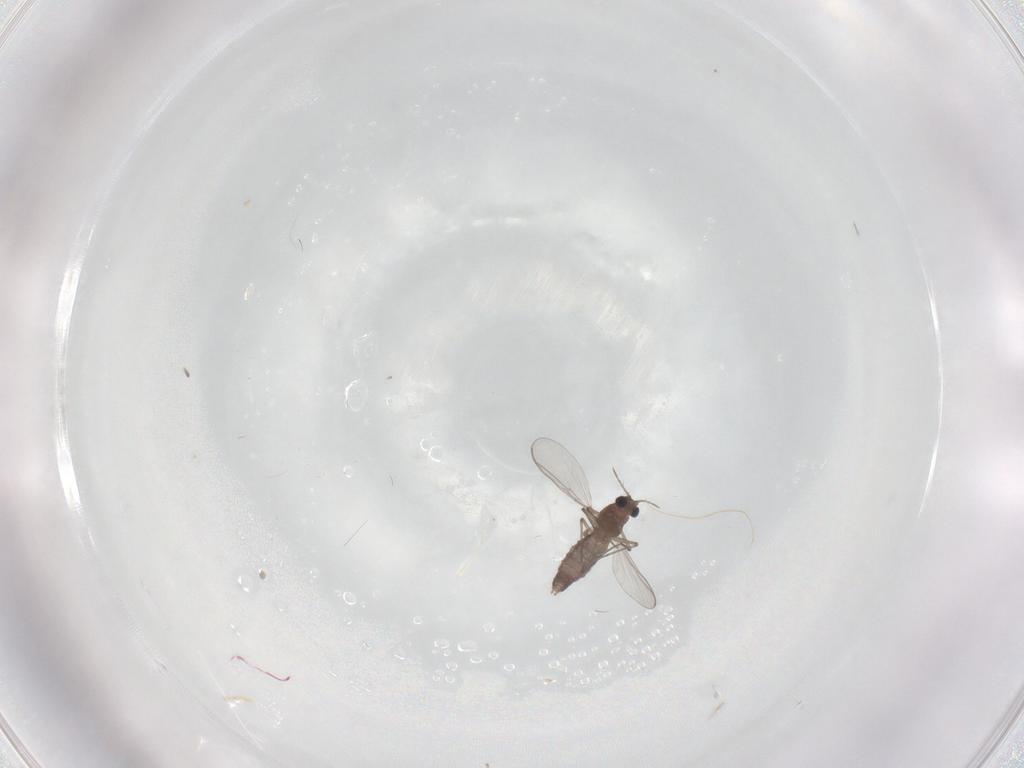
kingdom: Animalia
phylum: Arthropoda
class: Insecta
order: Diptera
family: Chironomidae
